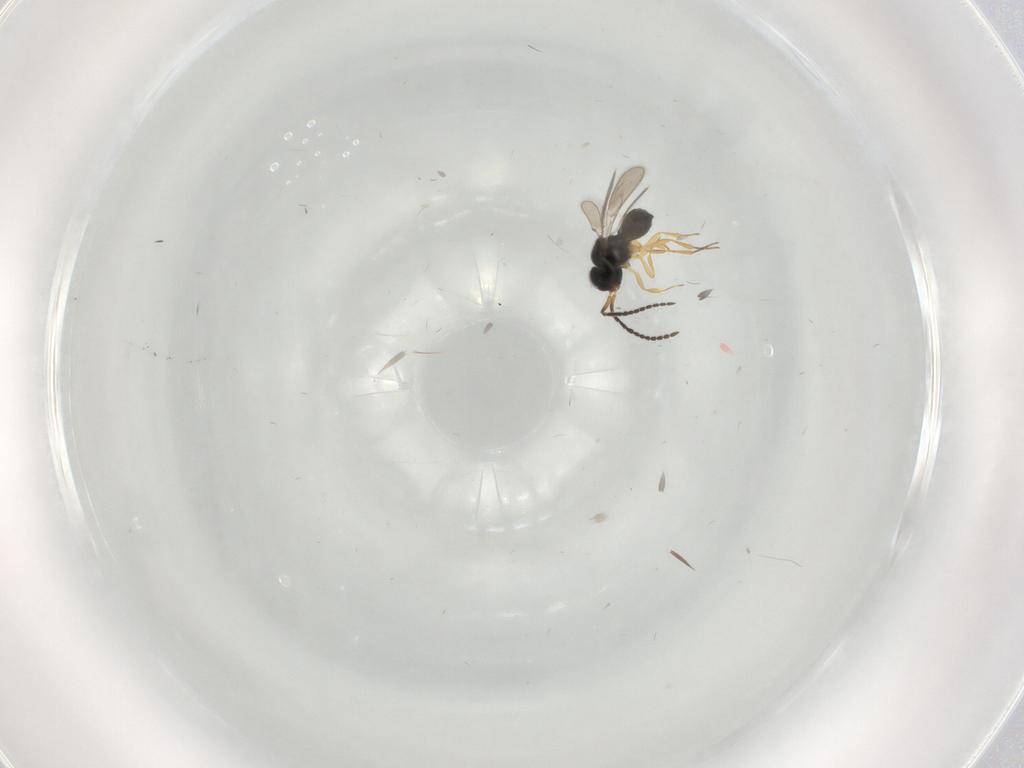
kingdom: Animalia
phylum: Arthropoda
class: Insecta
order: Hymenoptera
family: Scelionidae
